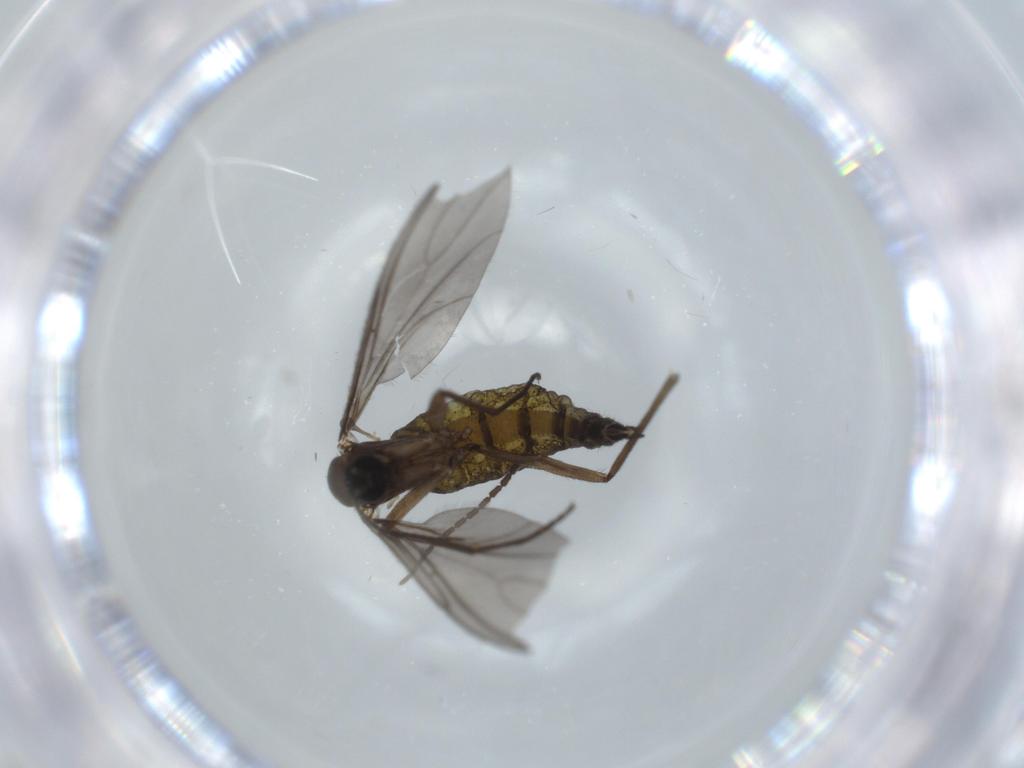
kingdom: Animalia
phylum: Arthropoda
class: Insecta
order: Diptera
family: Sciaridae
